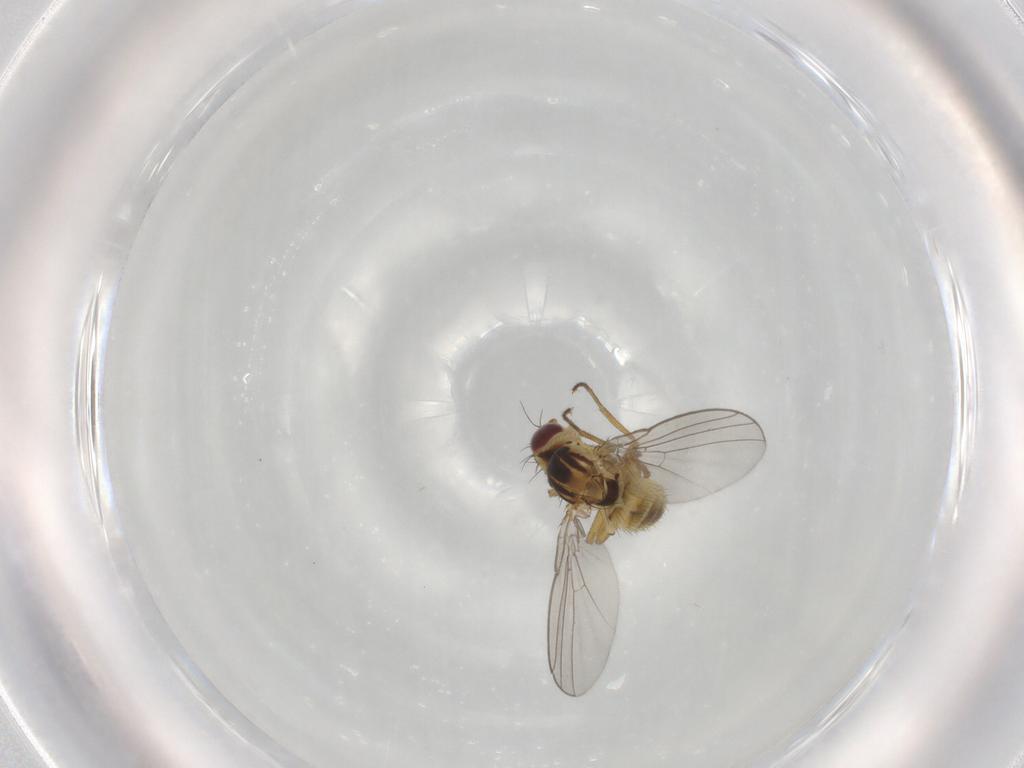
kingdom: Animalia
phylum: Arthropoda
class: Insecta
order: Diptera
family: Agromyzidae
